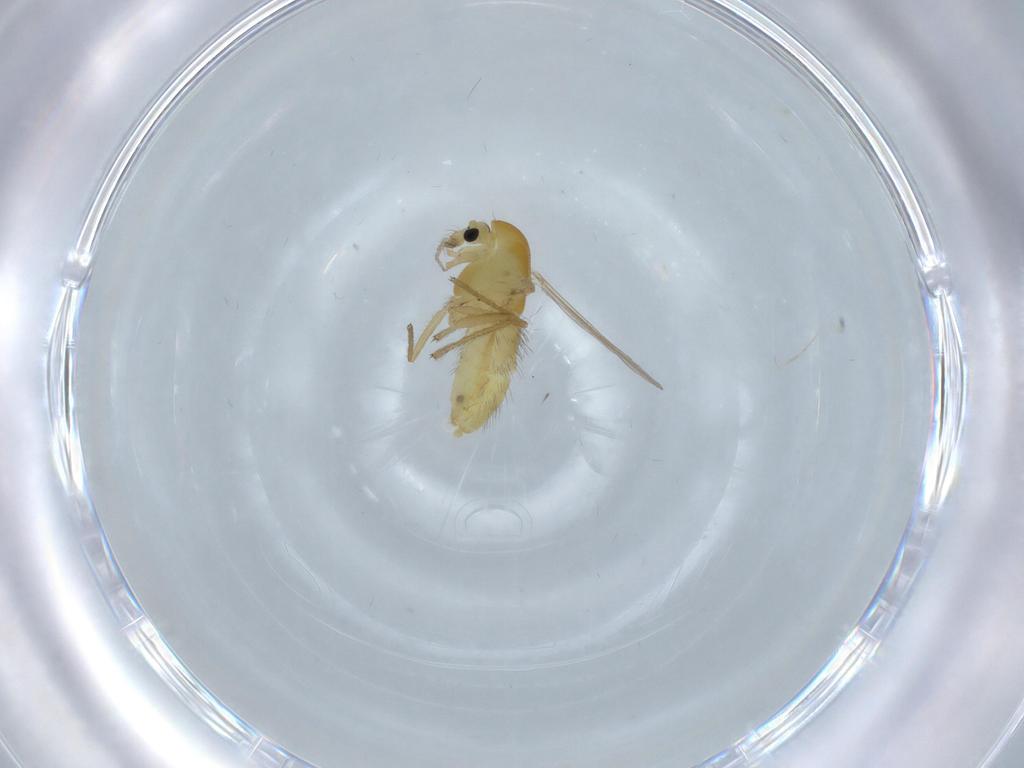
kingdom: Animalia
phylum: Arthropoda
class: Insecta
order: Diptera
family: Chironomidae
